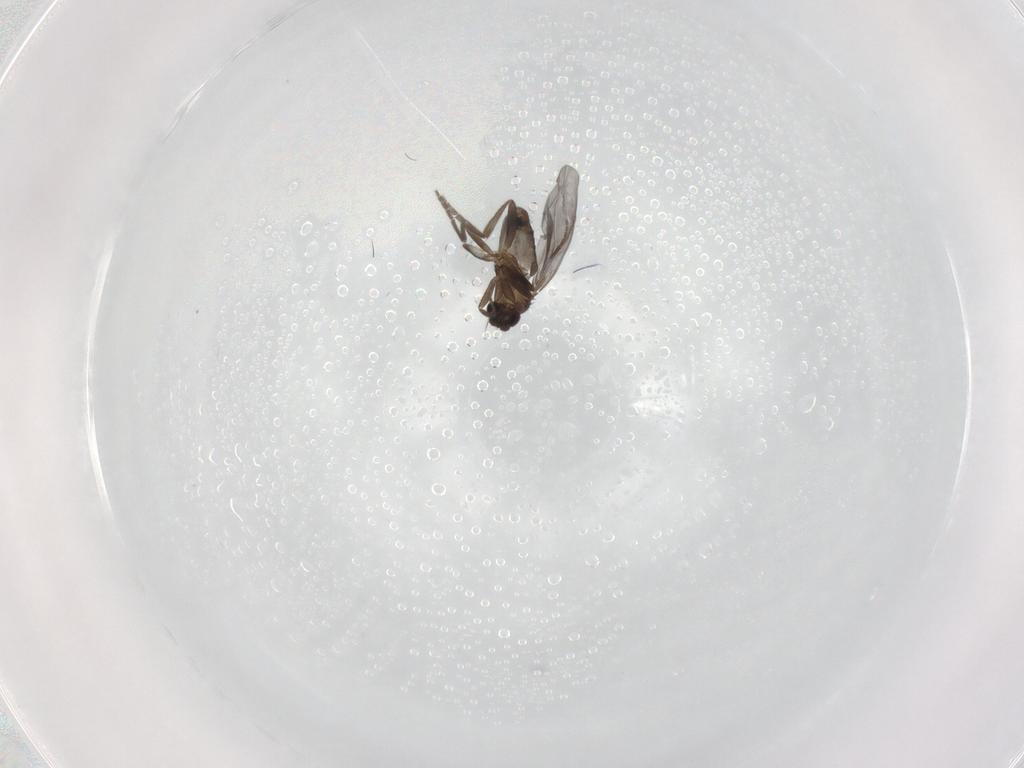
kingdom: Animalia
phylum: Arthropoda
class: Insecta
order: Diptera
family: Phoridae
